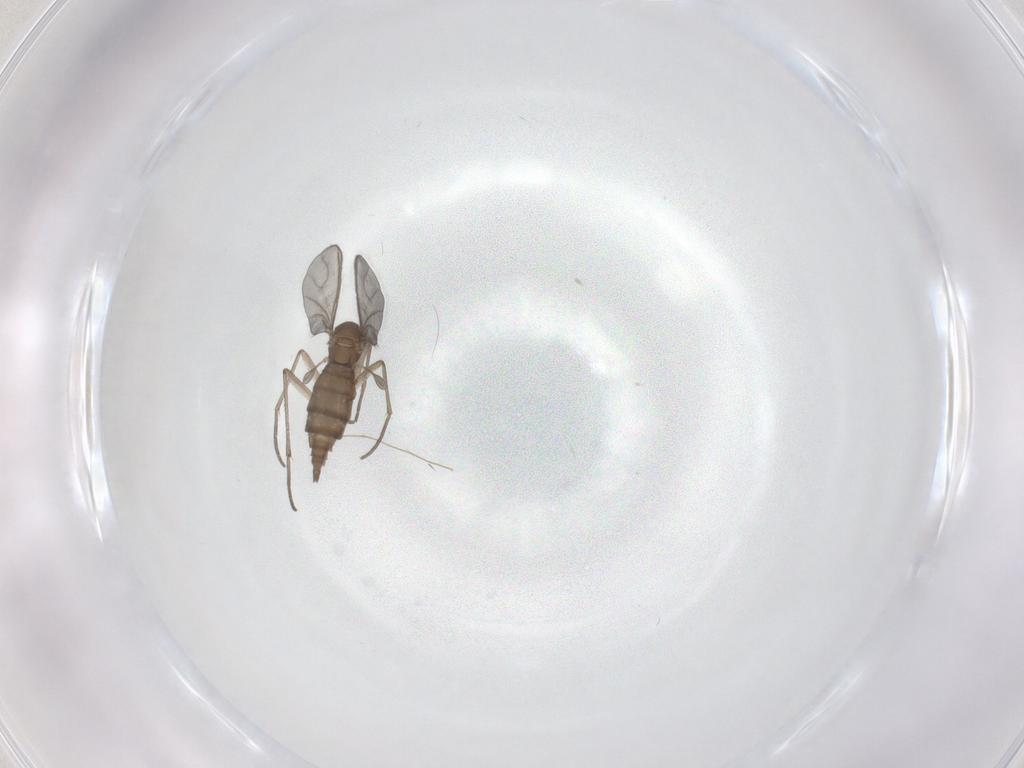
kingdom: Animalia
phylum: Arthropoda
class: Insecta
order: Diptera
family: Sciaridae
